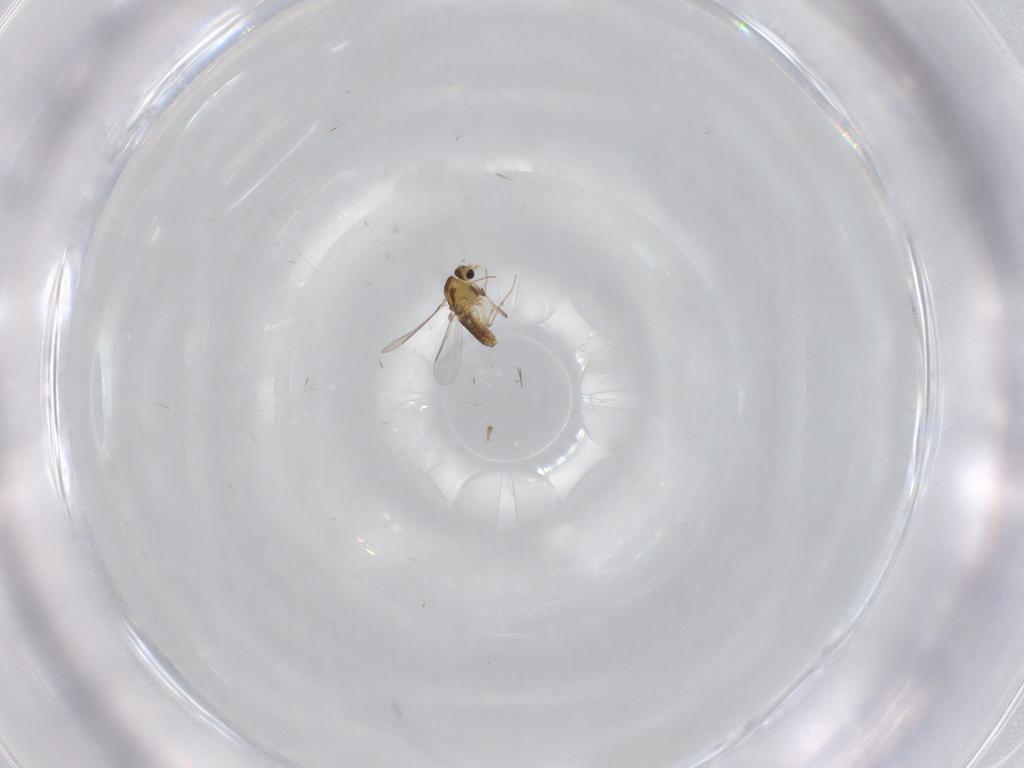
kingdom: Animalia
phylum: Arthropoda
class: Insecta
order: Diptera
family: Chironomidae
